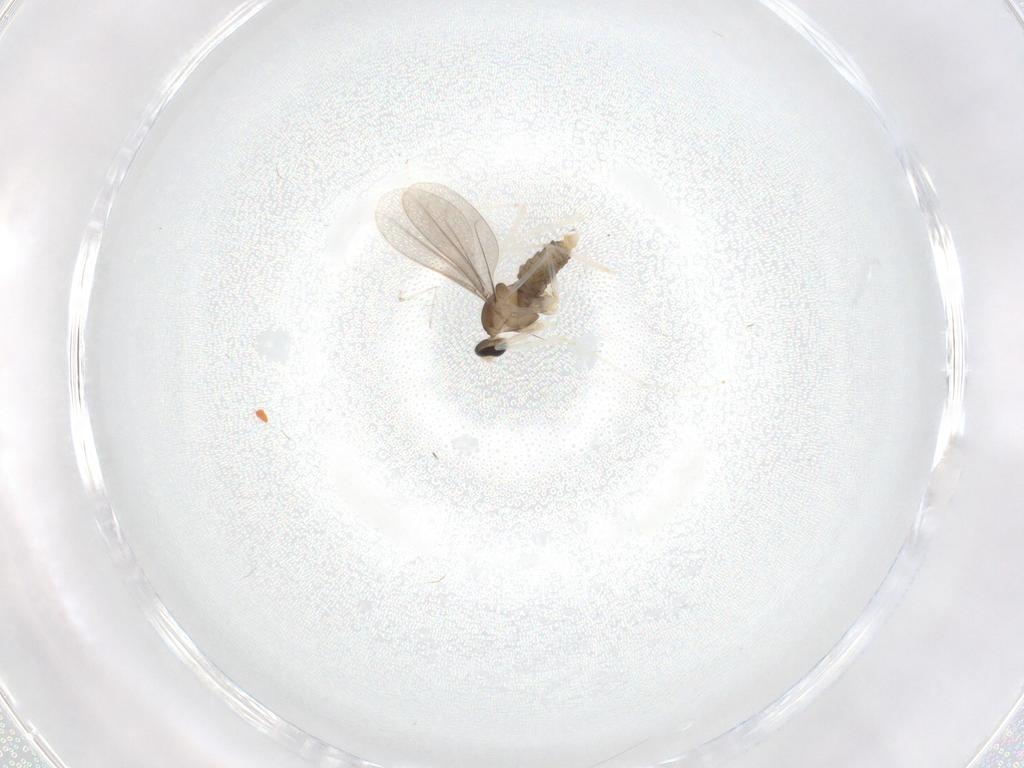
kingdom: Animalia
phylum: Arthropoda
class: Insecta
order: Diptera
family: Cecidomyiidae
